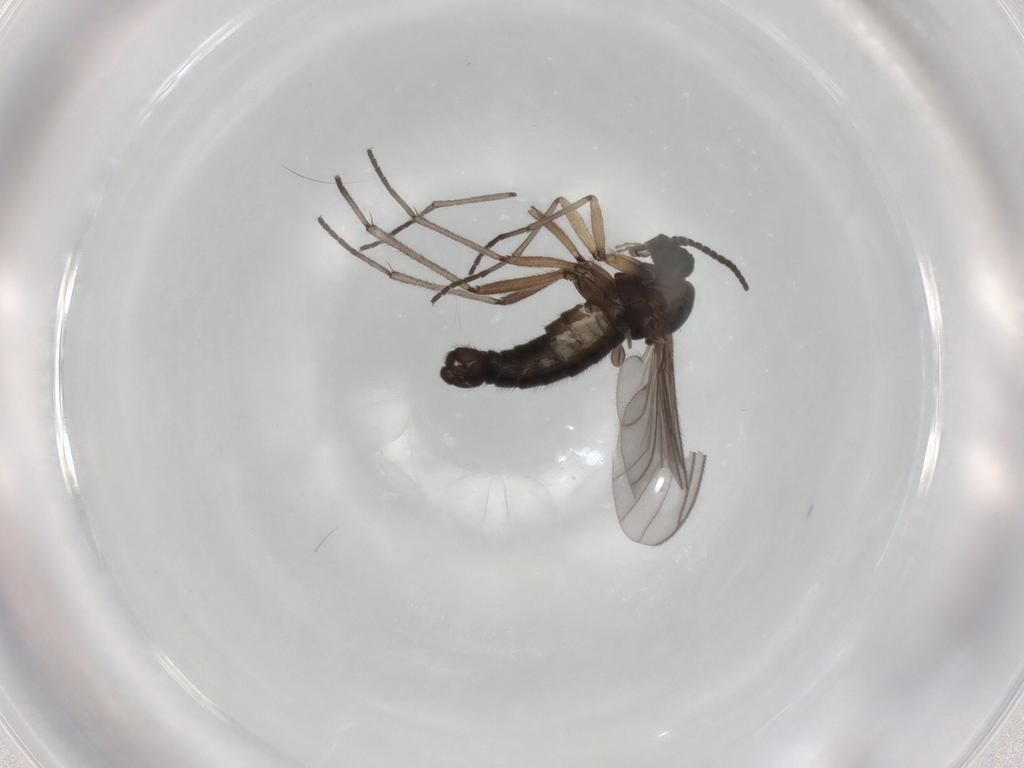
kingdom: Animalia
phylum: Arthropoda
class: Insecta
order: Diptera
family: Sciaridae
